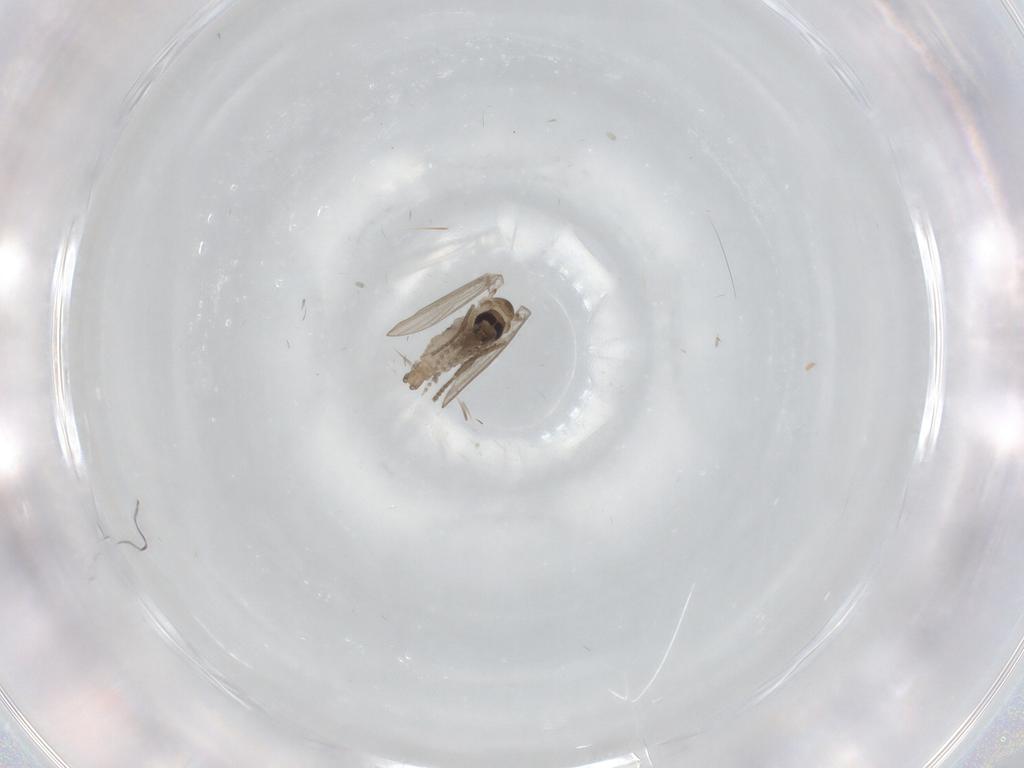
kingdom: Animalia
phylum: Arthropoda
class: Insecta
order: Diptera
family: Psychodidae
